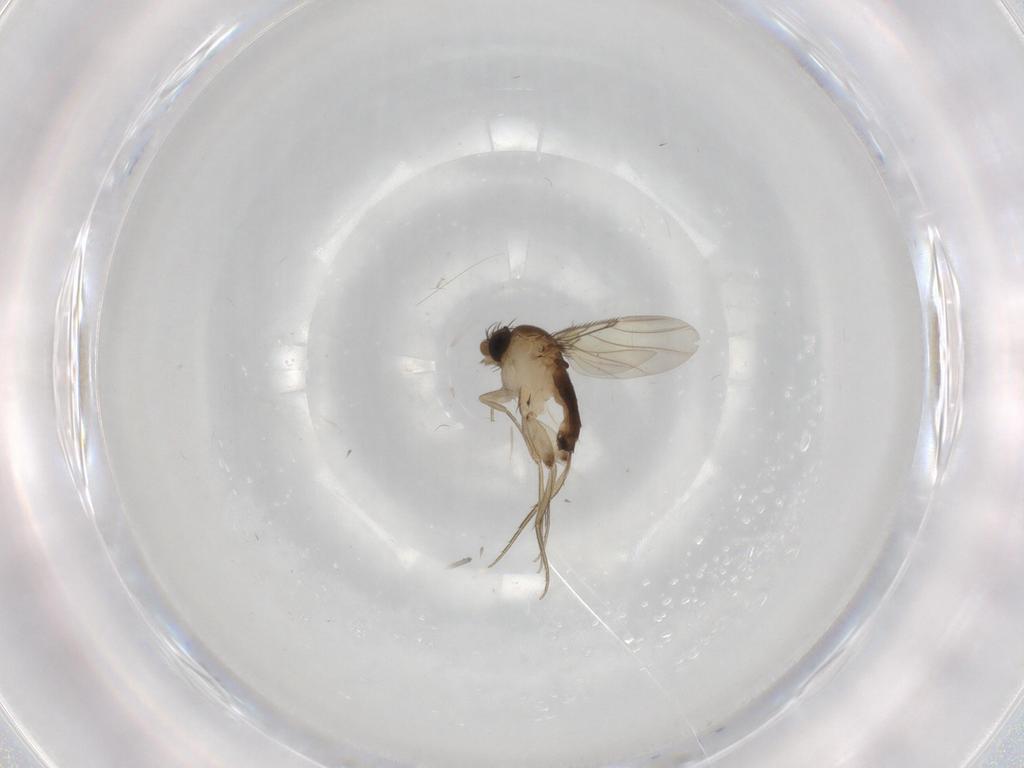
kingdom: Animalia
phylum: Arthropoda
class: Insecta
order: Diptera
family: Phoridae
